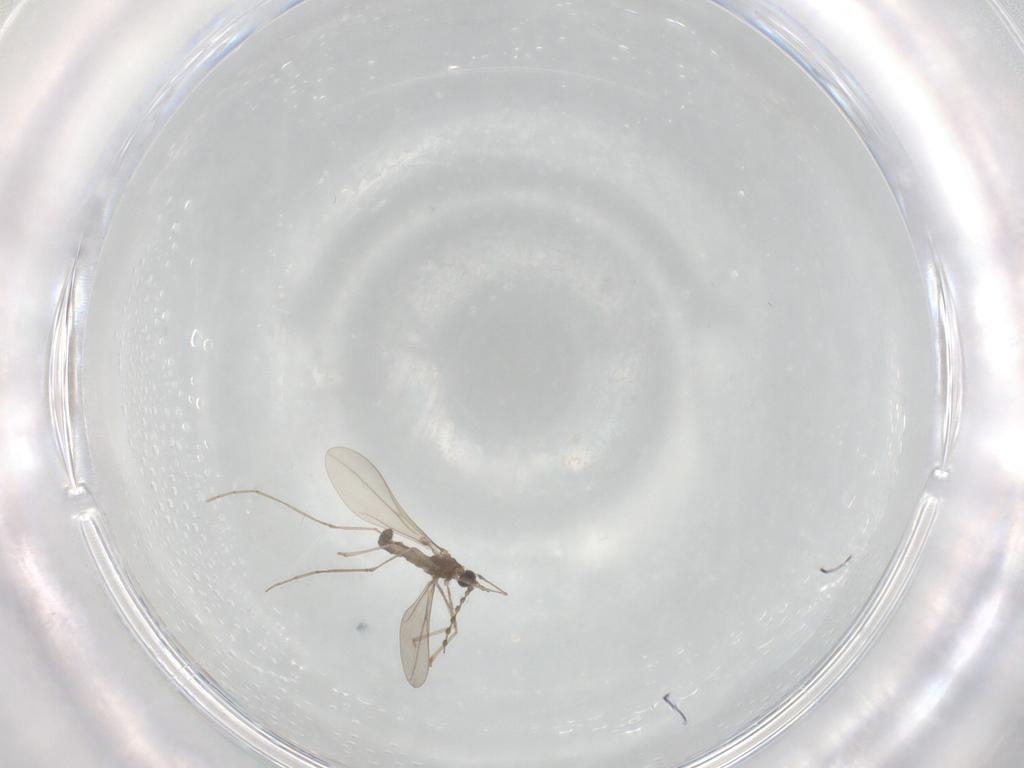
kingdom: Animalia
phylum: Arthropoda
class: Insecta
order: Diptera
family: Cecidomyiidae
